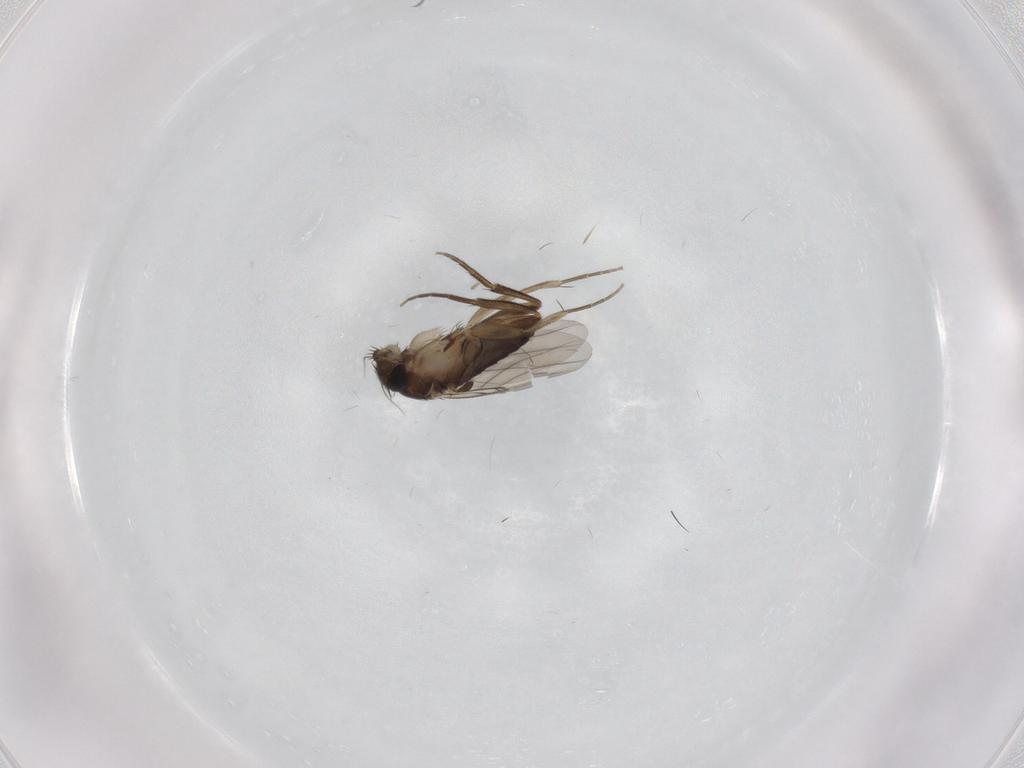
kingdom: Animalia
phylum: Arthropoda
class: Insecta
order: Diptera
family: Phoridae
